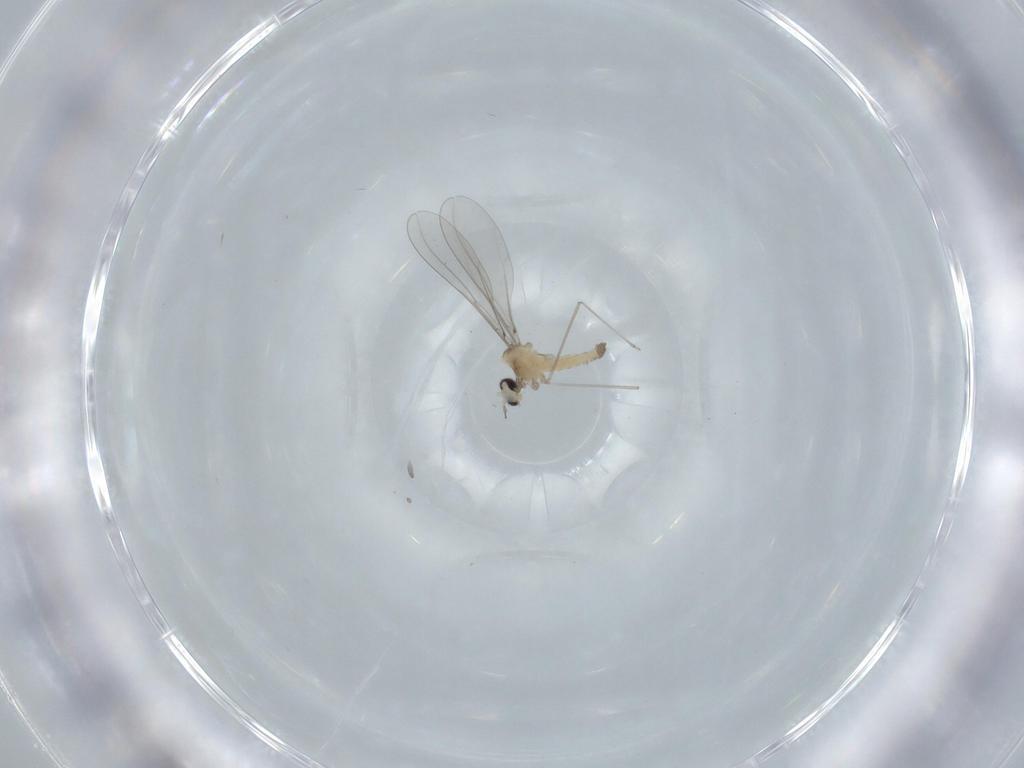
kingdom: Animalia
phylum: Arthropoda
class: Insecta
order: Diptera
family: Cecidomyiidae
